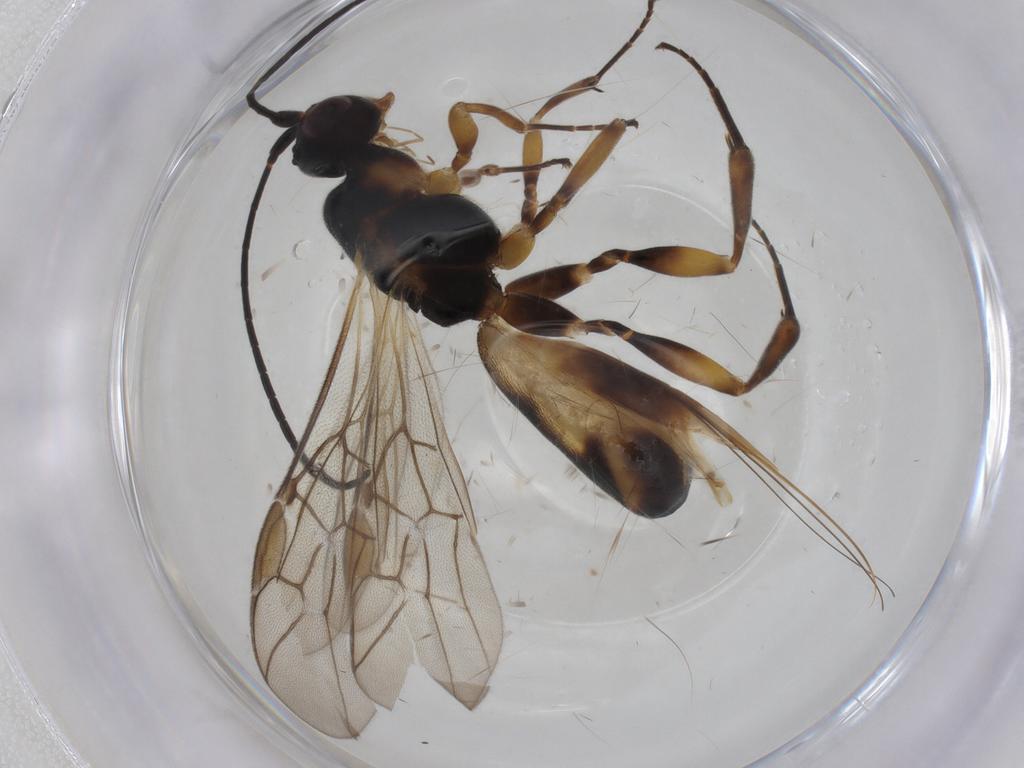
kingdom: Animalia
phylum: Arthropoda
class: Insecta
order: Hymenoptera
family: Braconidae
